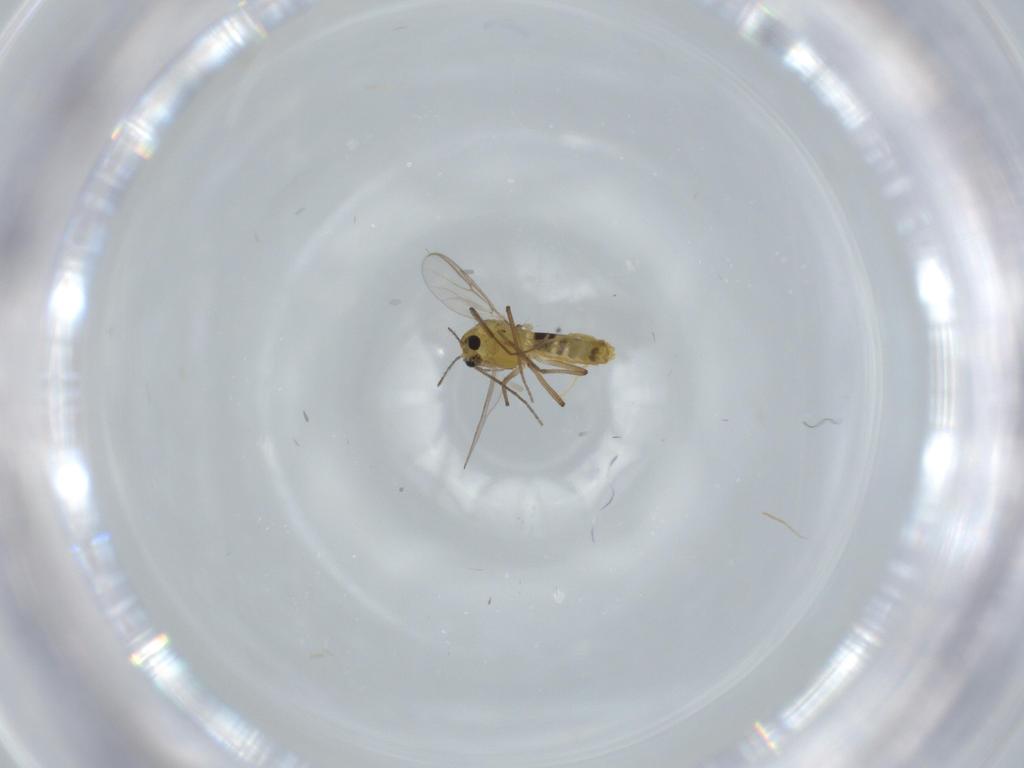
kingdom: Animalia
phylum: Arthropoda
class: Insecta
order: Diptera
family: Chironomidae
